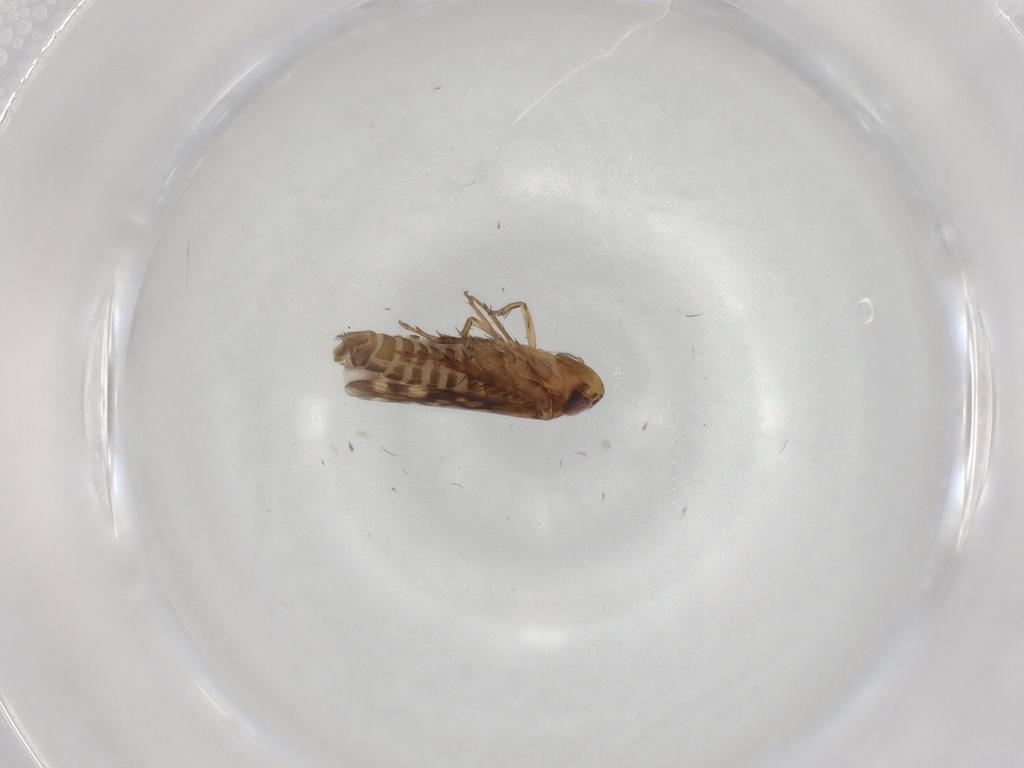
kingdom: Animalia
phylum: Arthropoda
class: Insecta
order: Hemiptera
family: Cicadellidae
